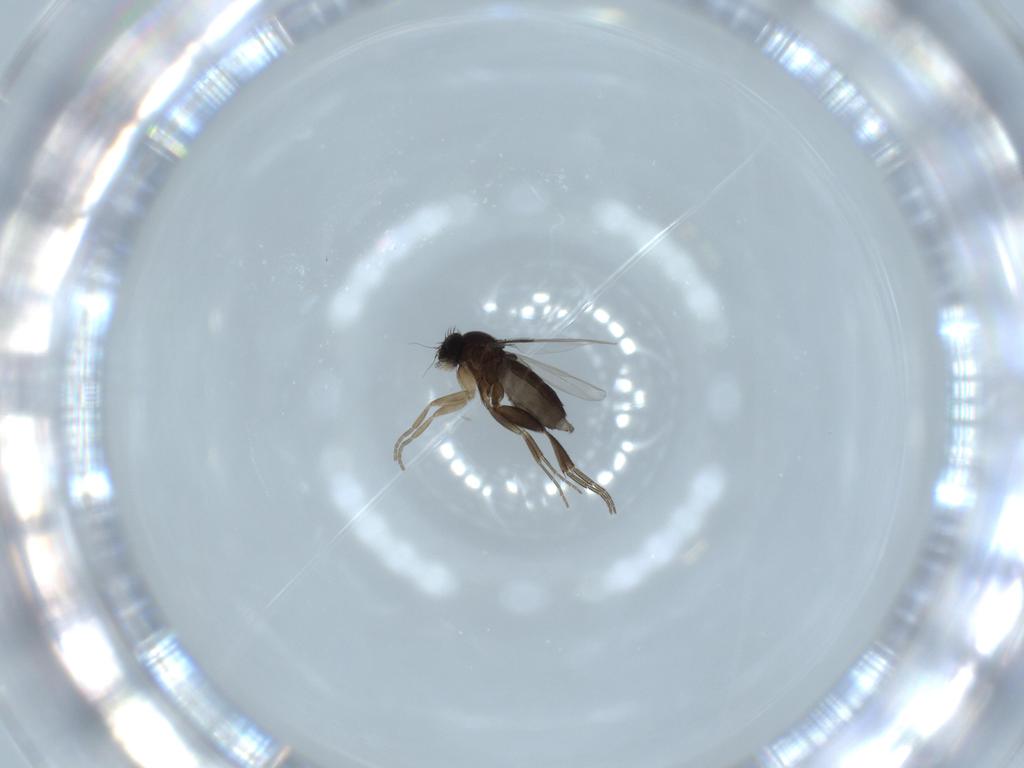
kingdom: Animalia
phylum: Arthropoda
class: Insecta
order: Diptera
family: Phoridae
